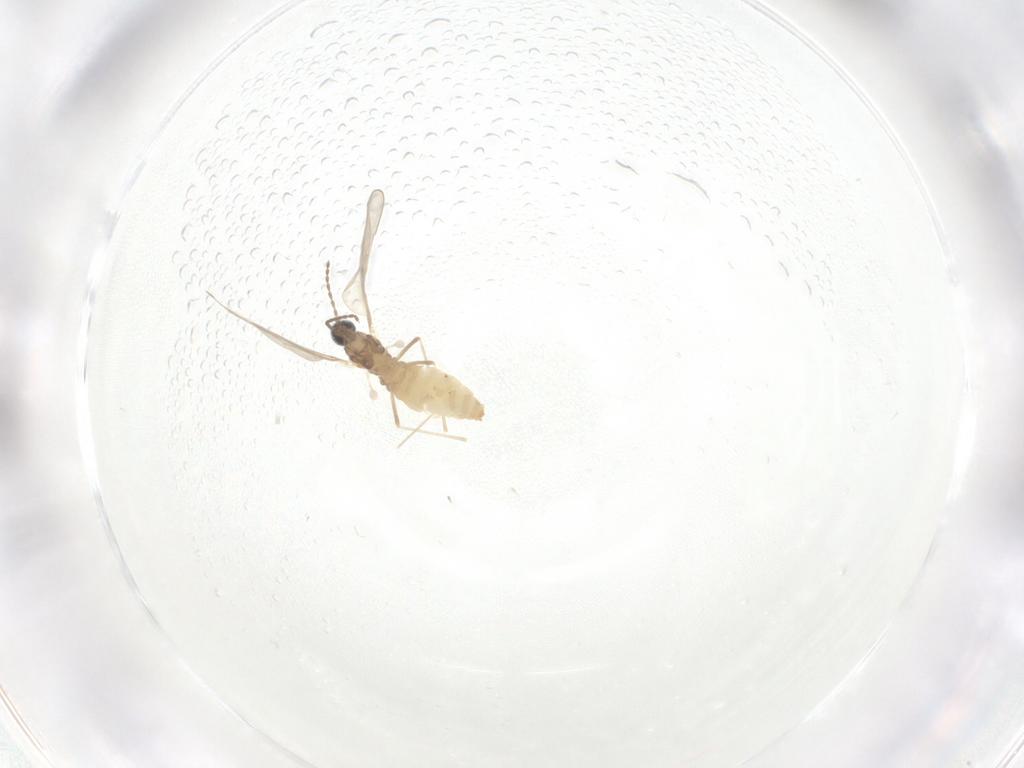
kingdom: Animalia
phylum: Arthropoda
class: Insecta
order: Diptera
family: Cecidomyiidae
